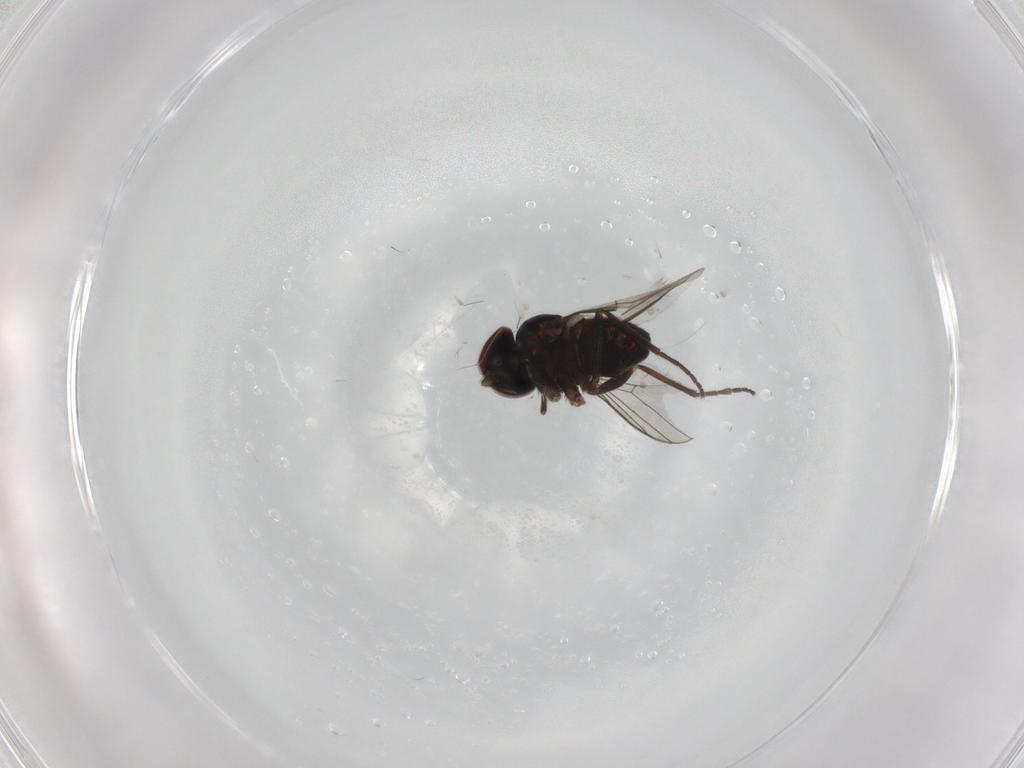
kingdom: Animalia
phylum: Arthropoda
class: Insecta
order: Diptera
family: Dolichopodidae
